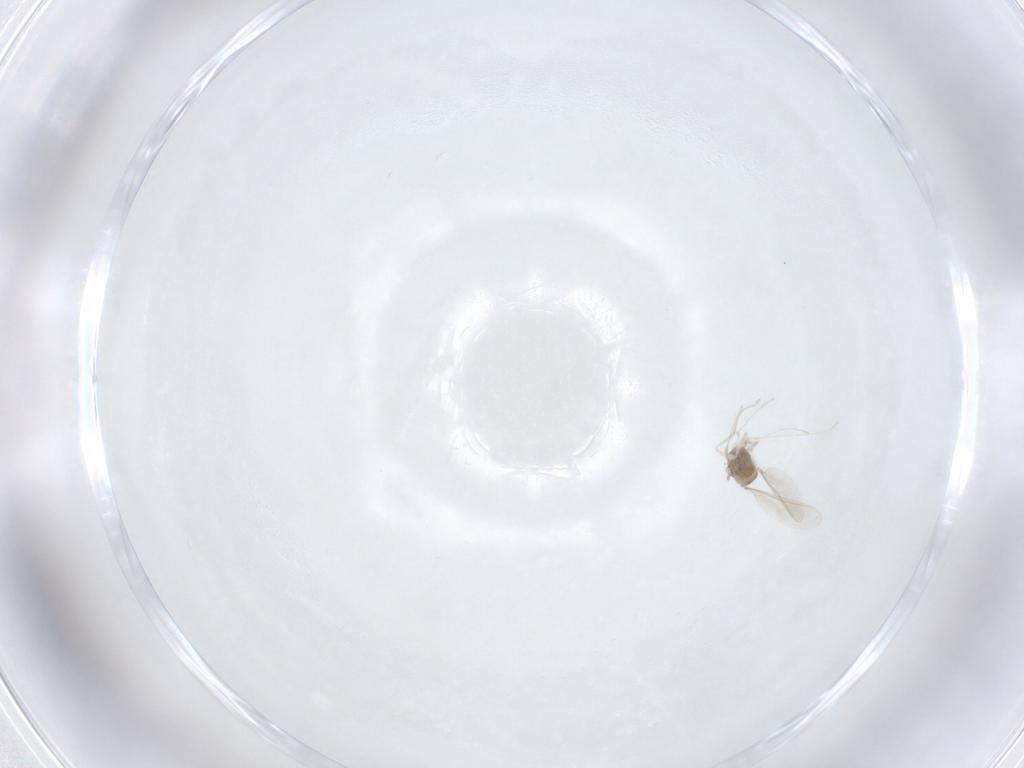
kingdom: Animalia
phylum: Arthropoda
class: Insecta
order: Diptera
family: Cecidomyiidae
